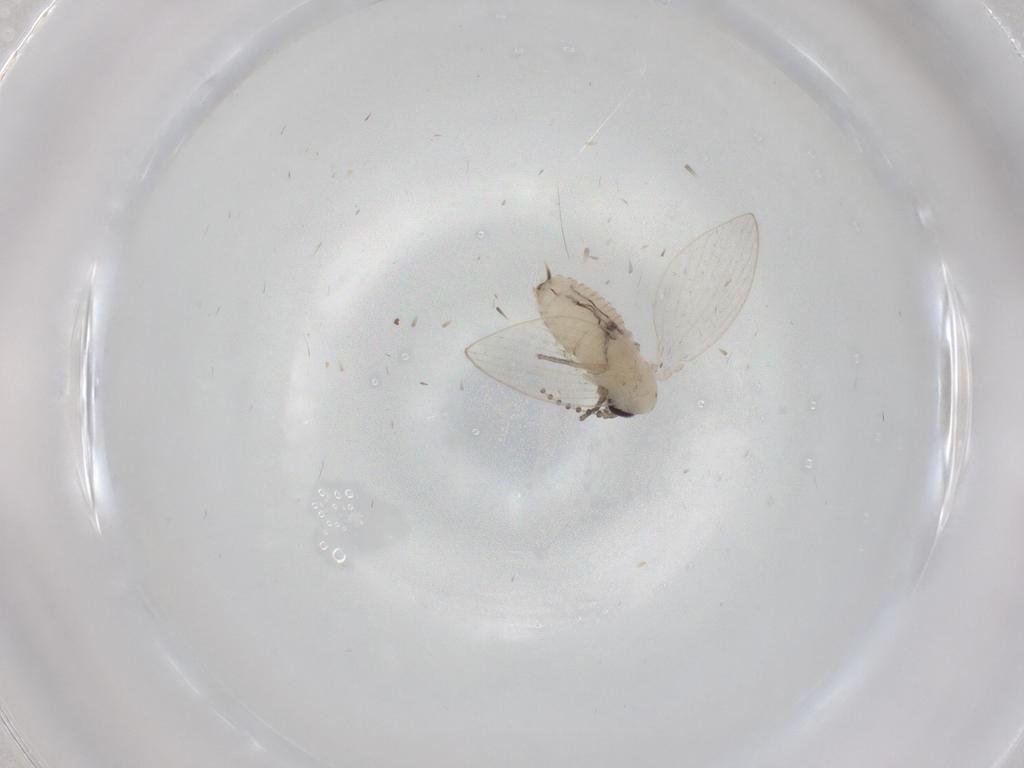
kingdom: Animalia
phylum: Arthropoda
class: Insecta
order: Diptera
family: Psychodidae
